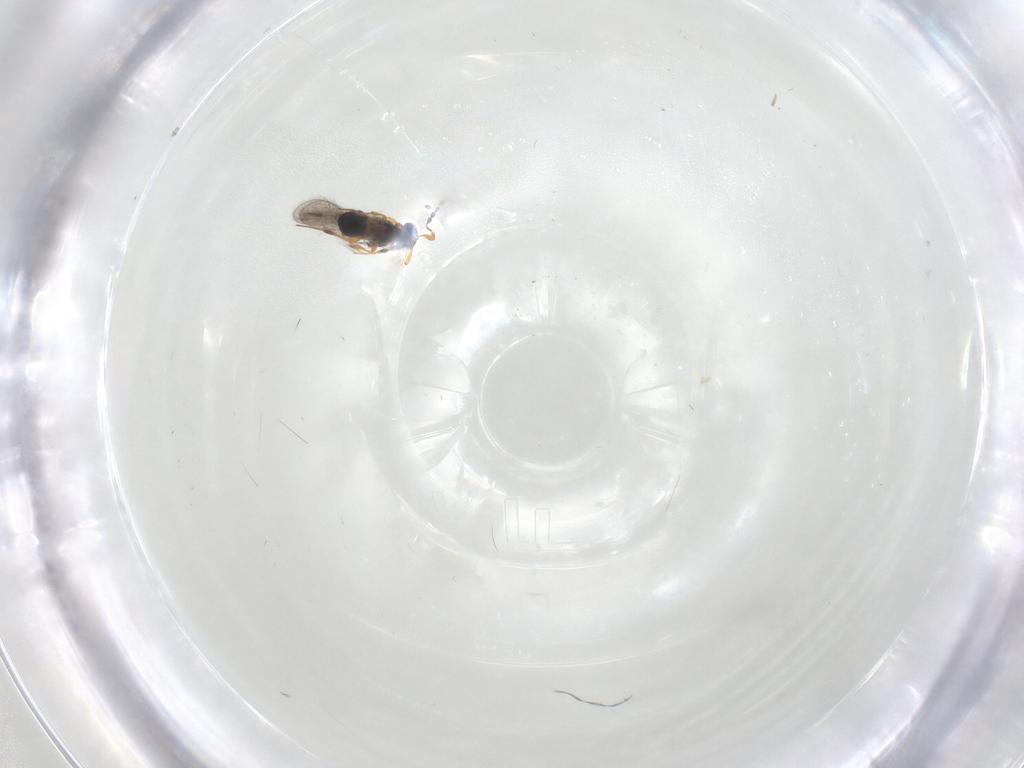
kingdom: Animalia
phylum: Arthropoda
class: Insecta
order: Hymenoptera
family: Platygastridae
